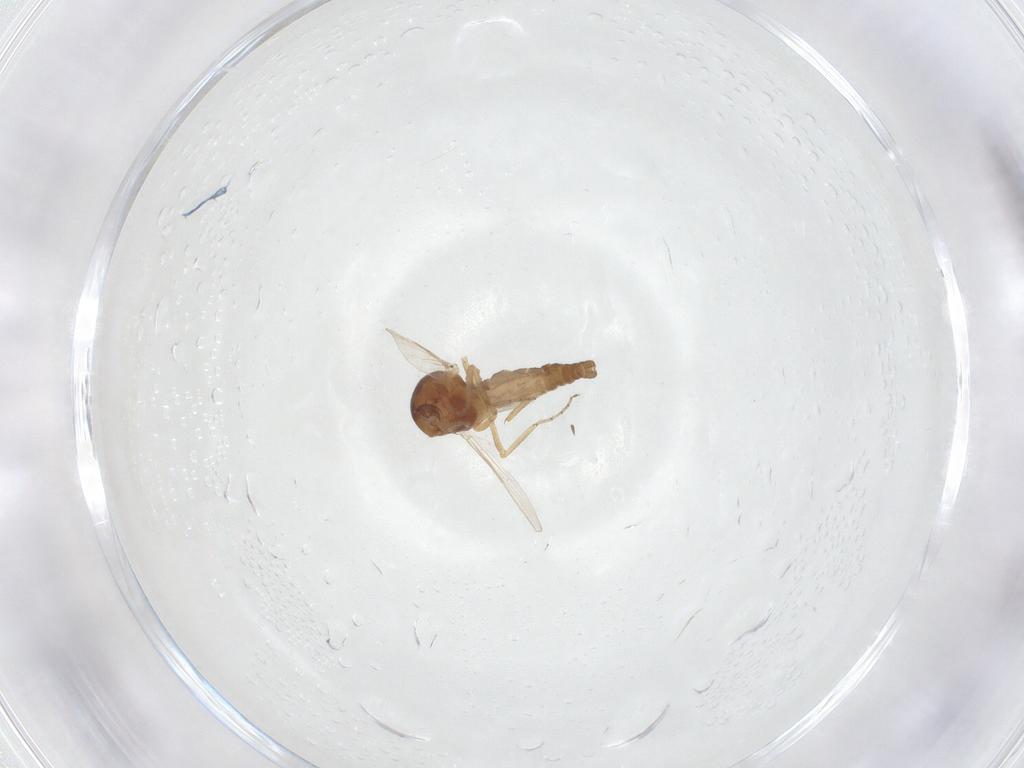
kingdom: Animalia
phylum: Arthropoda
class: Insecta
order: Diptera
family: Ceratopogonidae
